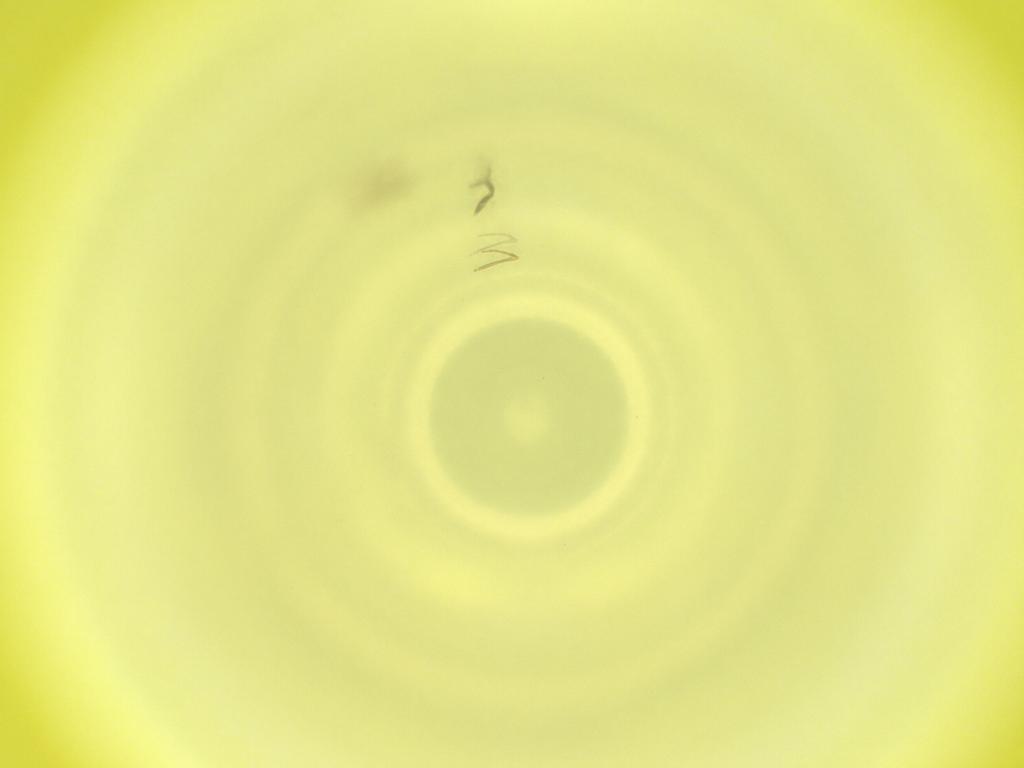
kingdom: Animalia
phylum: Arthropoda
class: Insecta
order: Diptera
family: Cecidomyiidae
